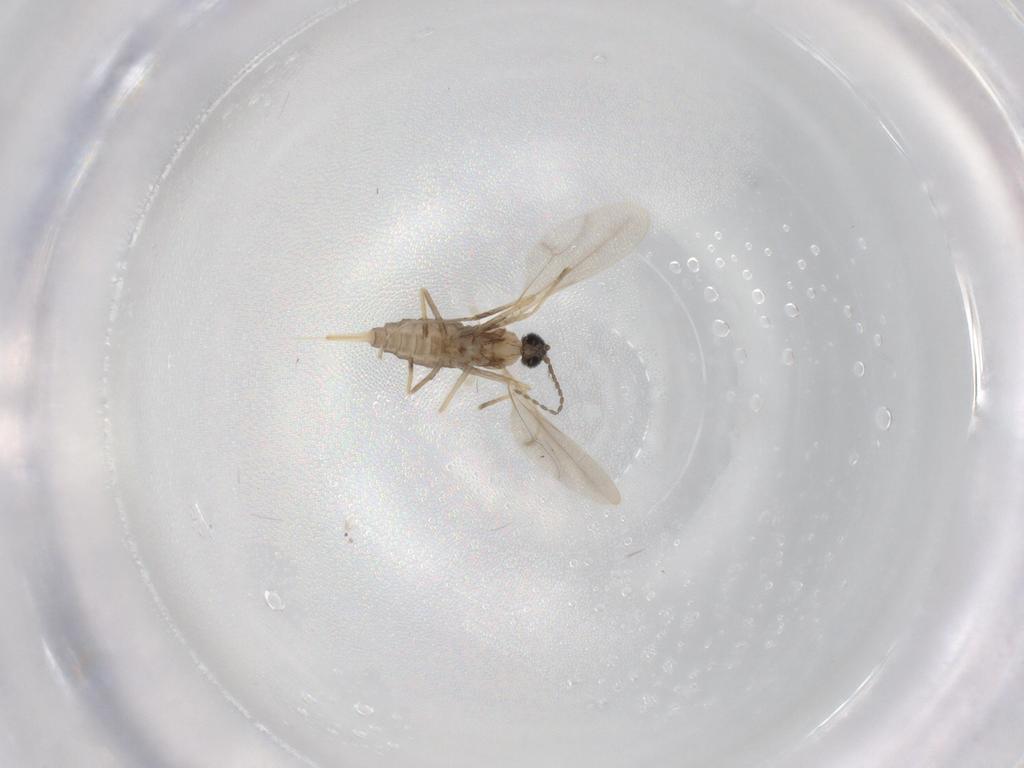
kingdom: Animalia
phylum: Arthropoda
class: Insecta
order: Diptera
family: Cecidomyiidae
